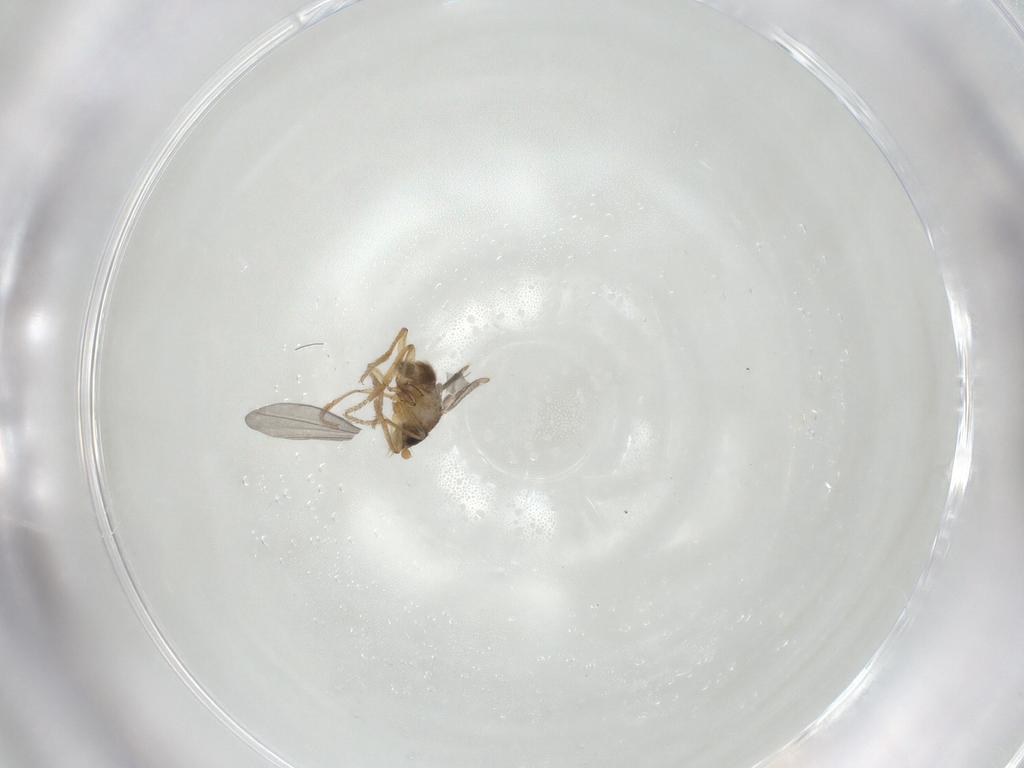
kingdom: Animalia
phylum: Arthropoda
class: Insecta
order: Diptera
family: Phoridae
